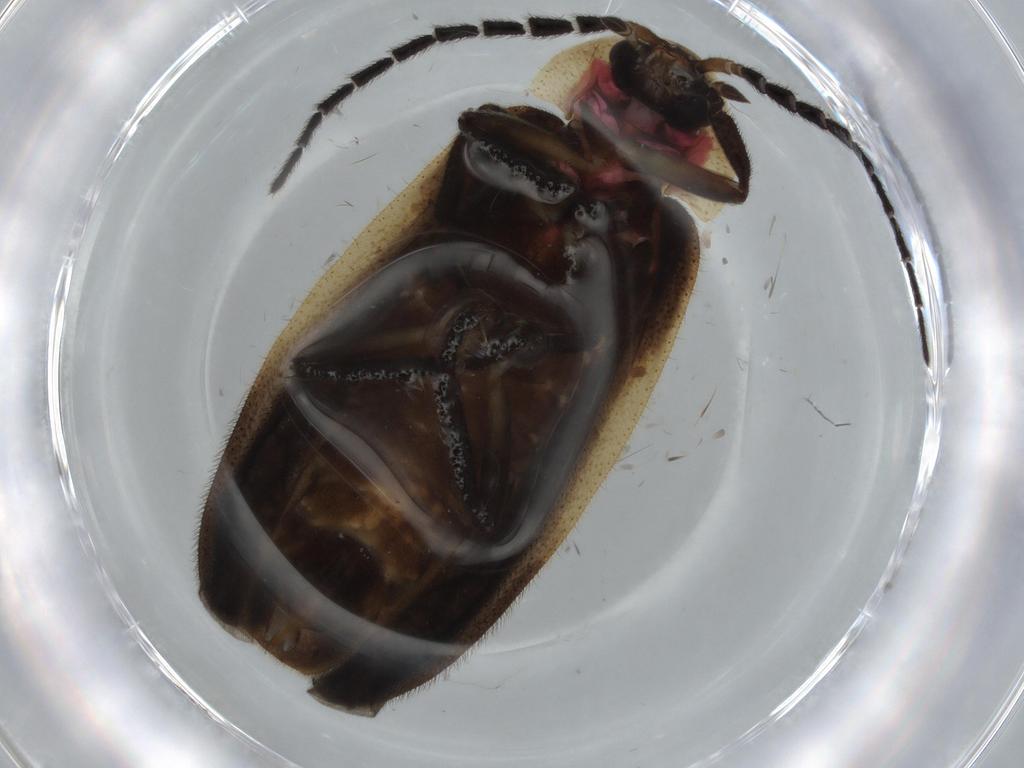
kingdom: Animalia
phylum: Arthropoda
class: Insecta
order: Coleoptera
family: Lampyridae
